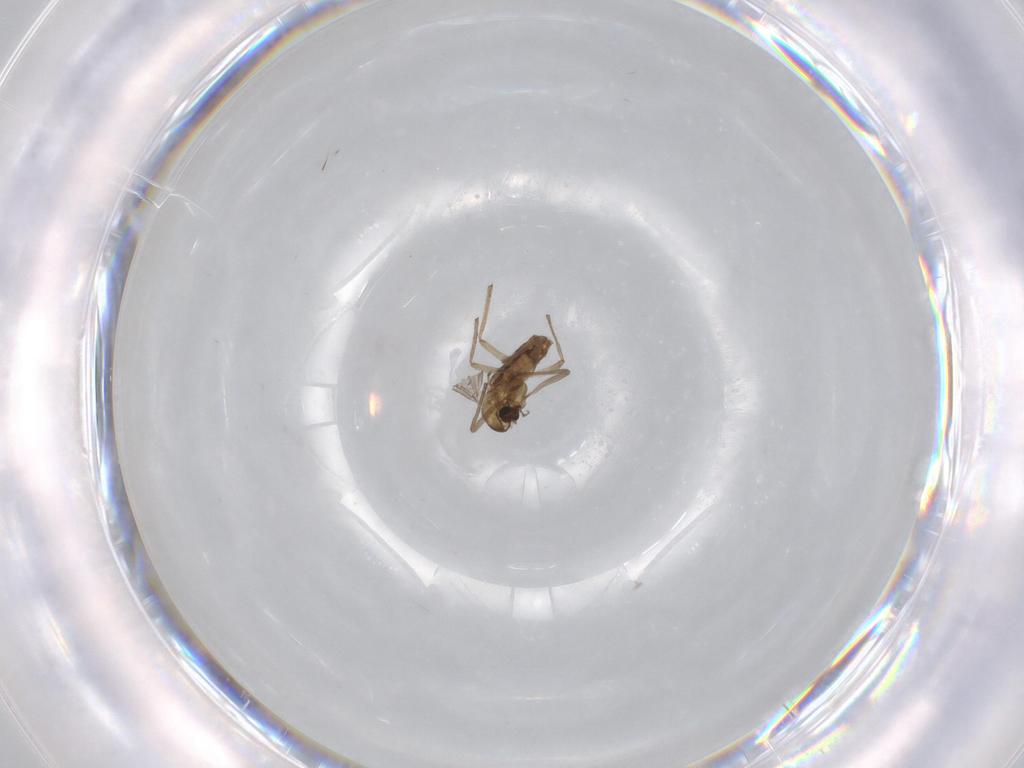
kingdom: Animalia
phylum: Arthropoda
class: Insecta
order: Diptera
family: Chironomidae
